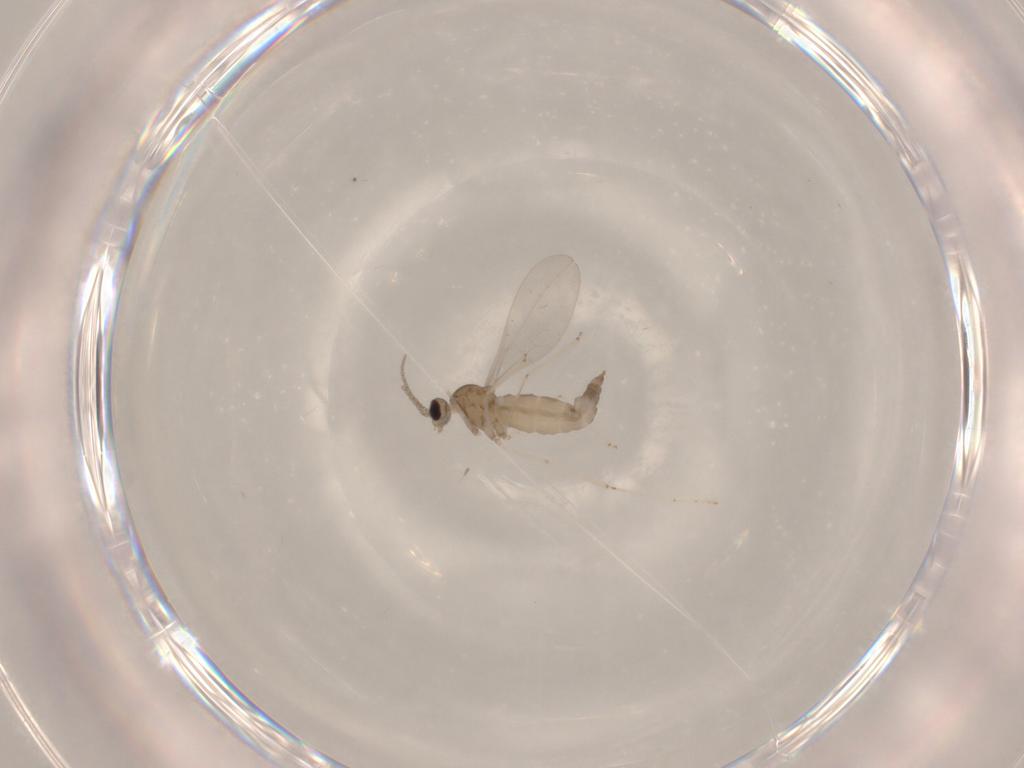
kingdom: Animalia
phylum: Arthropoda
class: Insecta
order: Diptera
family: Cecidomyiidae
